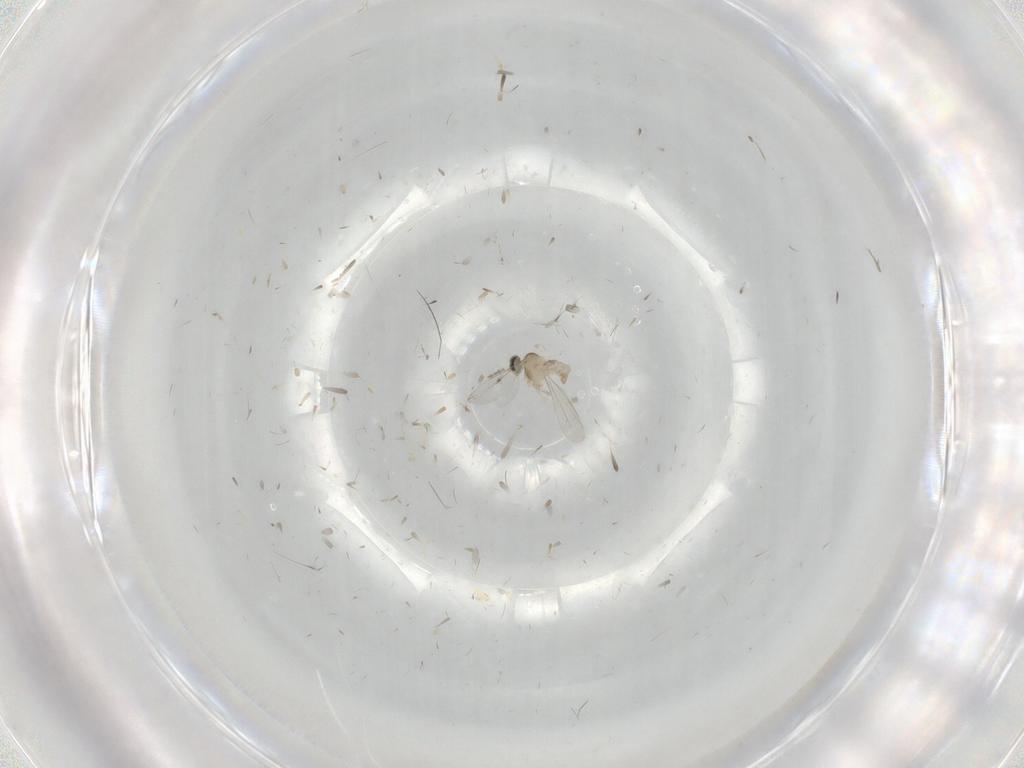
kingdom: Animalia
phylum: Arthropoda
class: Insecta
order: Diptera
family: Cecidomyiidae
